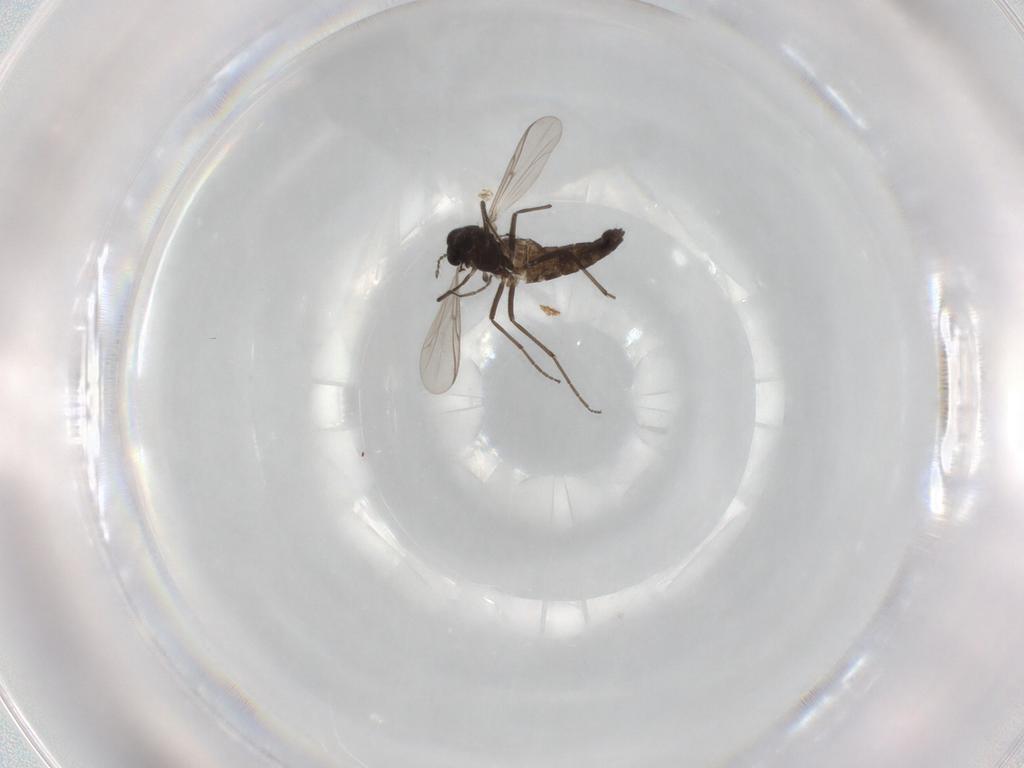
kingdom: Animalia
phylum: Arthropoda
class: Insecta
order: Diptera
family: Chironomidae
